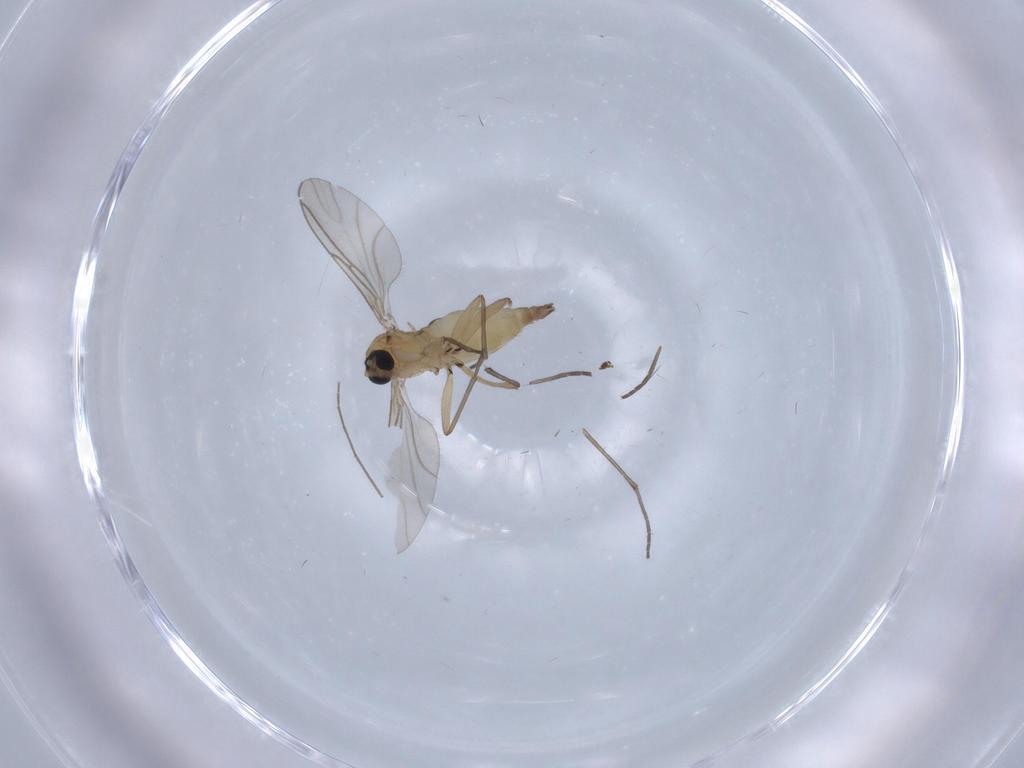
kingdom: Animalia
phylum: Arthropoda
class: Insecta
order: Diptera
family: Sciaridae
